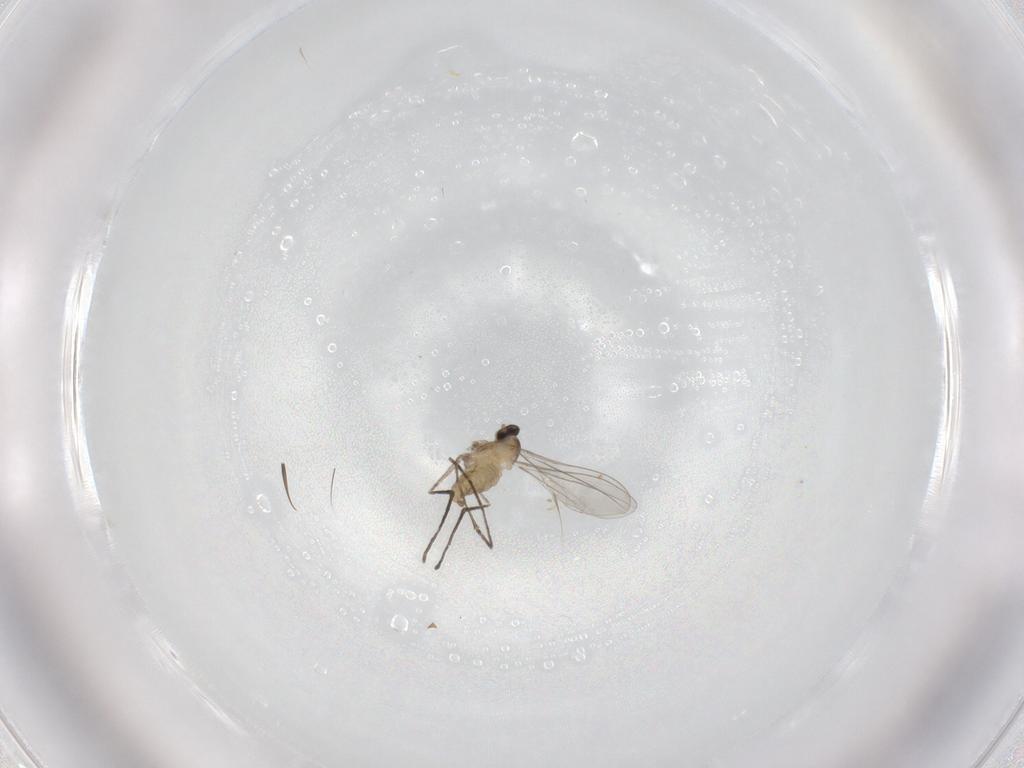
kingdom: Animalia
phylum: Arthropoda
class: Insecta
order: Diptera
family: Cecidomyiidae
